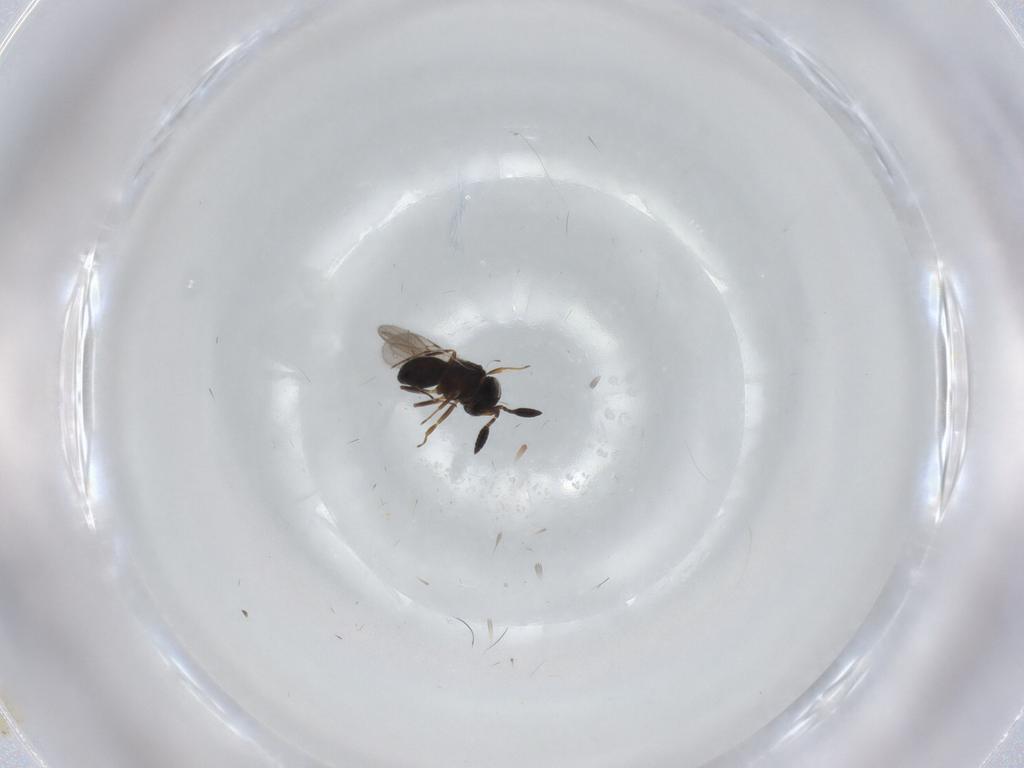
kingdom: Animalia
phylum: Arthropoda
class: Insecta
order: Hymenoptera
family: Scelionidae
